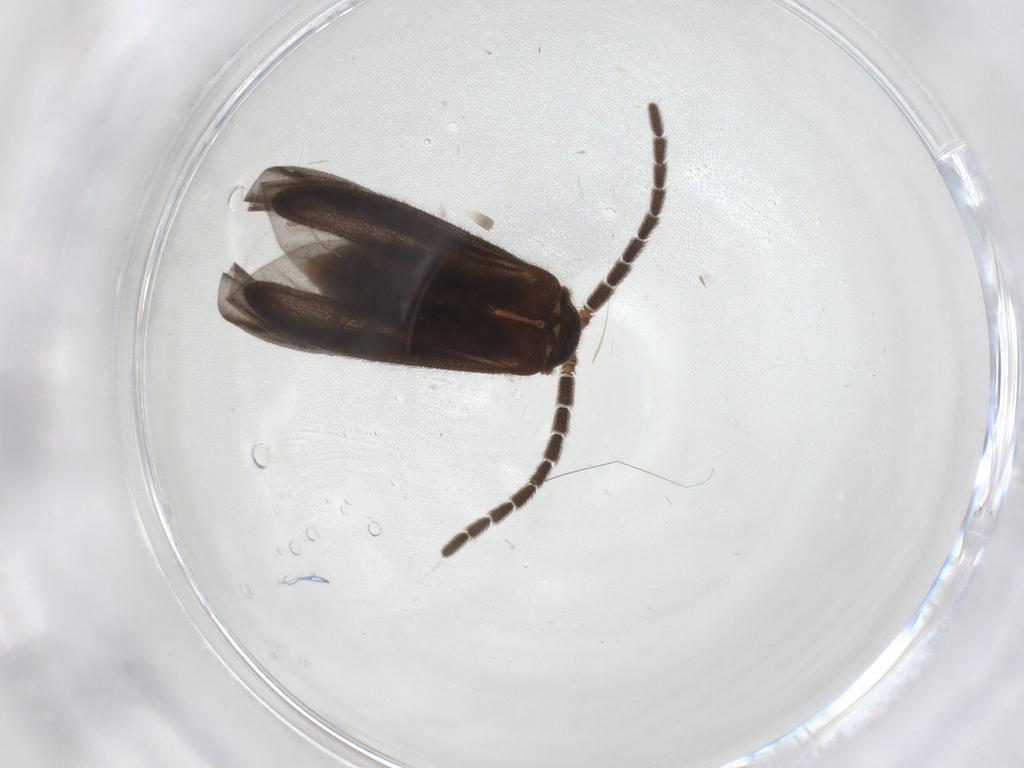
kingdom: Animalia
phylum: Arthropoda
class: Insecta
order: Coleoptera
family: Lycidae
